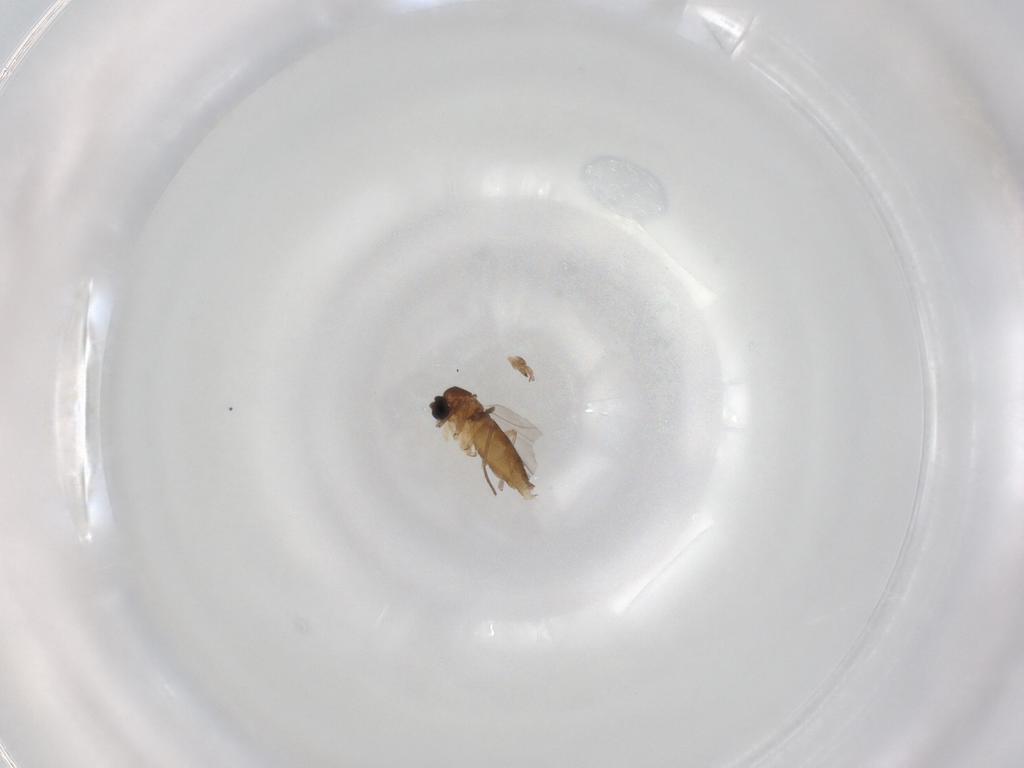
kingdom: Animalia
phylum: Arthropoda
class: Insecta
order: Diptera
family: Sciaridae
